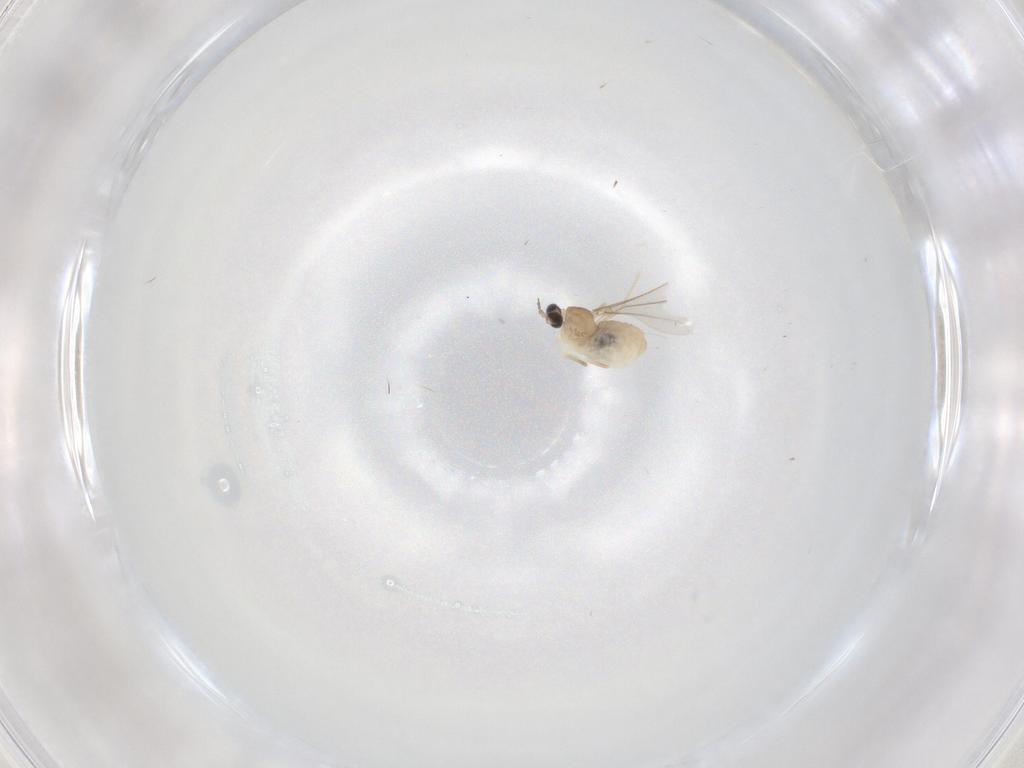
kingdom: Animalia
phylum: Arthropoda
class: Insecta
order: Diptera
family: Cecidomyiidae
